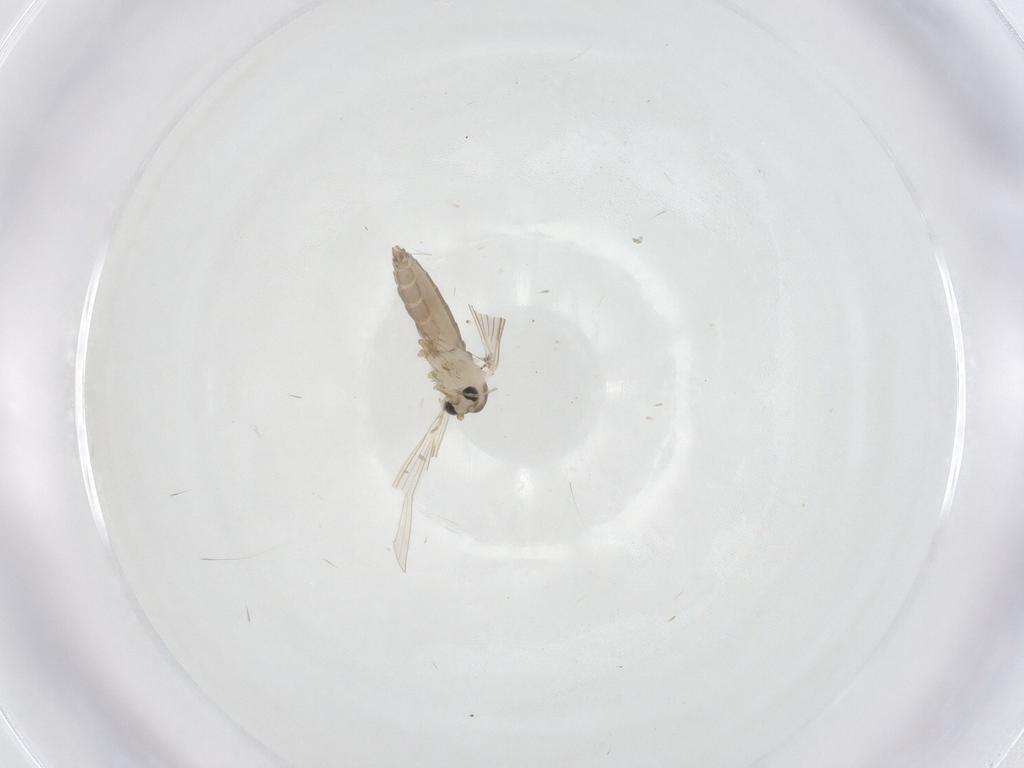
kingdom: Animalia
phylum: Arthropoda
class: Insecta
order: Diptera
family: Psychodidae
